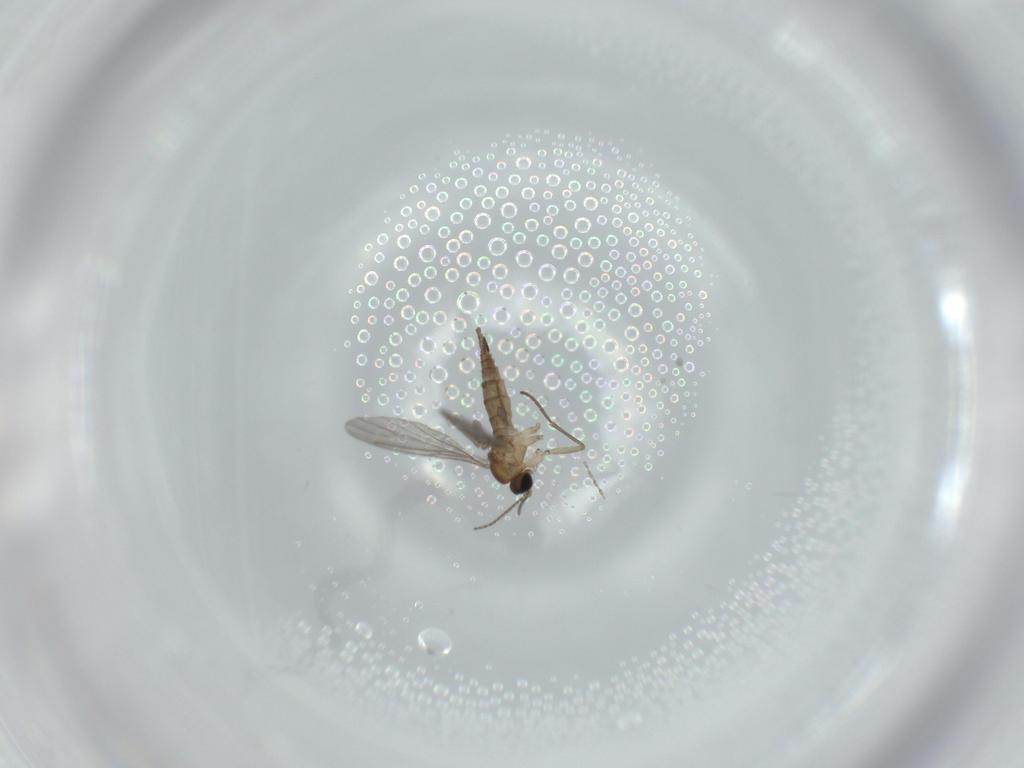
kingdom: Animalia
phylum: Arthropoda
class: Insecta
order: Diptera
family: Sciaridae
